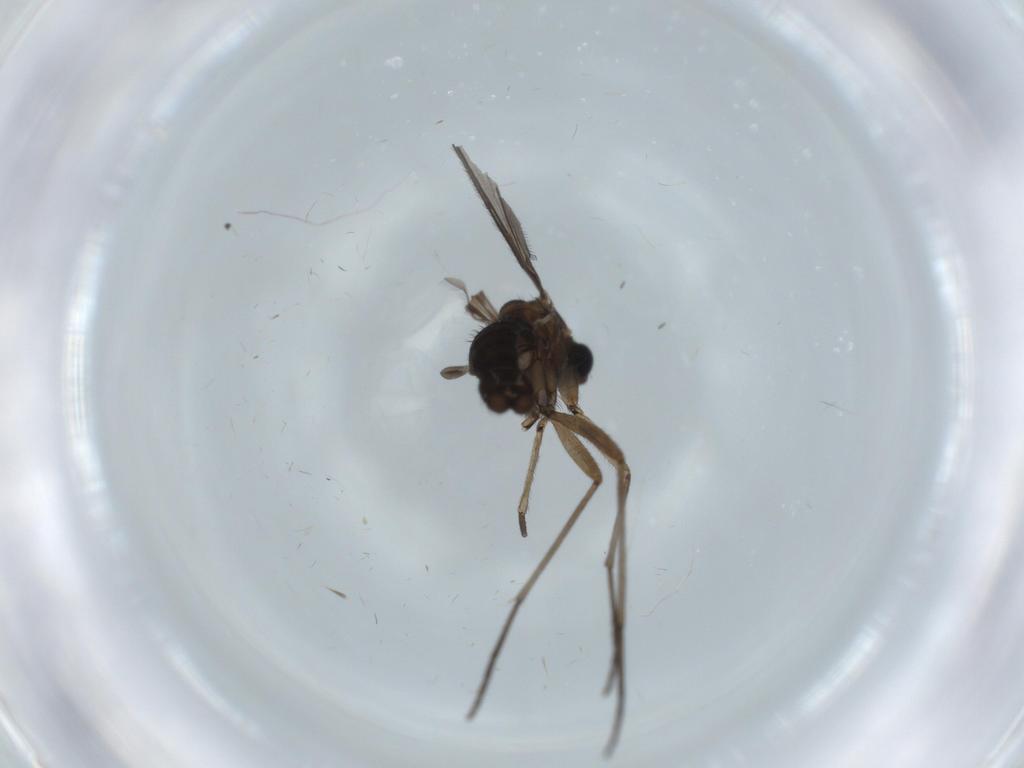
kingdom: Animalia
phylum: Arthropoda
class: Insecta
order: Diptera
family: Sciaridae
